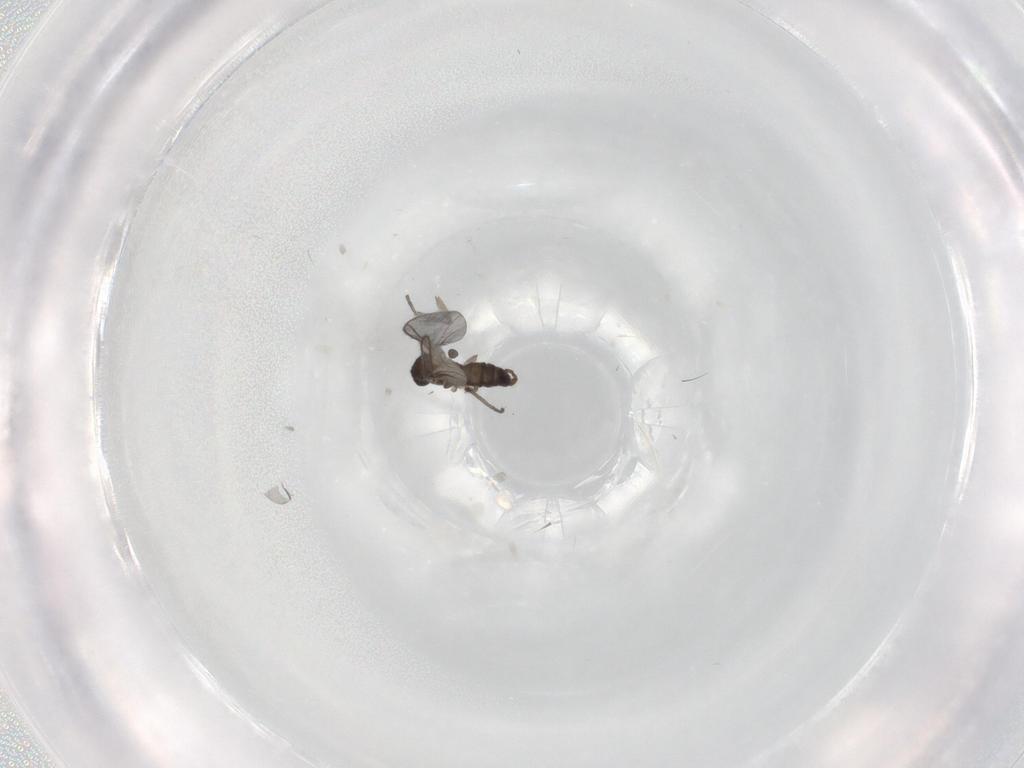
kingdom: Animalia
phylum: Arthropoda
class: Insecta
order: Diptera
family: Sciaridae
